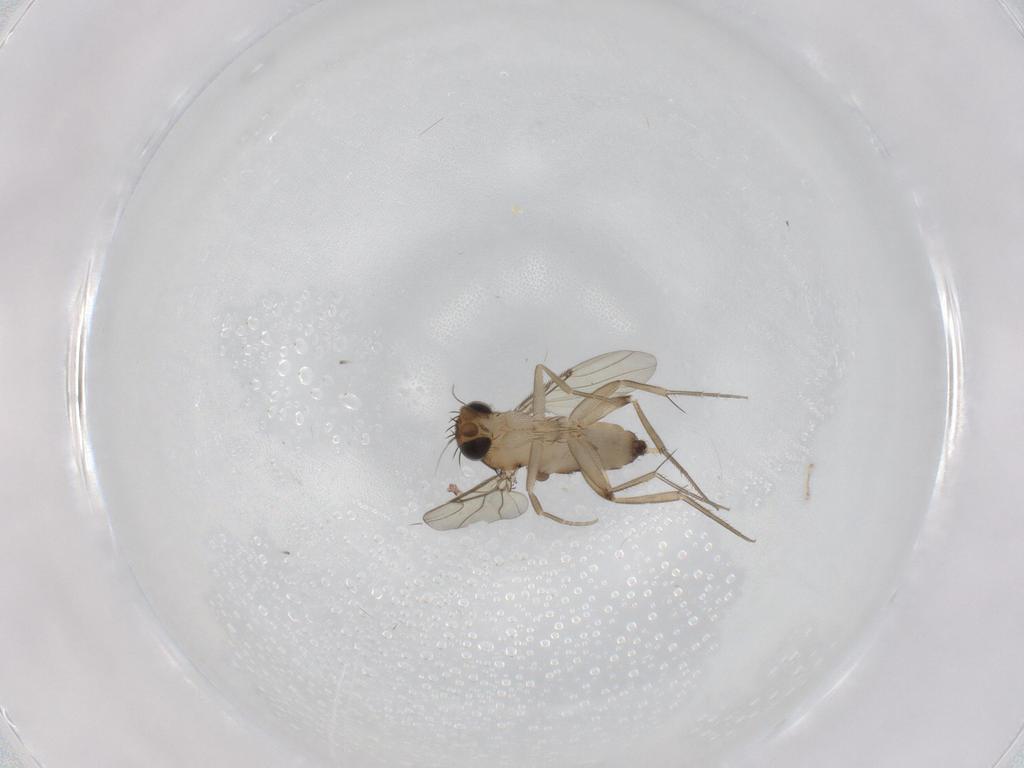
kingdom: Animalia
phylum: Arthropoda
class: Insecta
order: Diptera
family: Phoridae
